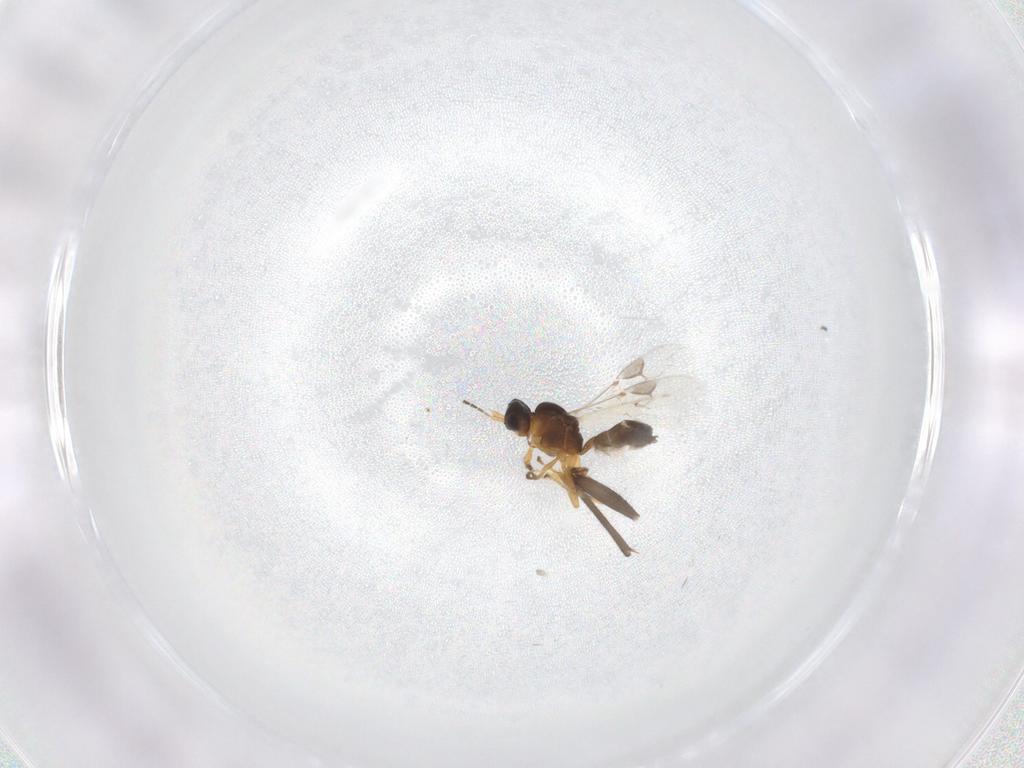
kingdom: Animalia
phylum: Arthropoda
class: Insecta
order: Hymenoptera
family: Braconidae
